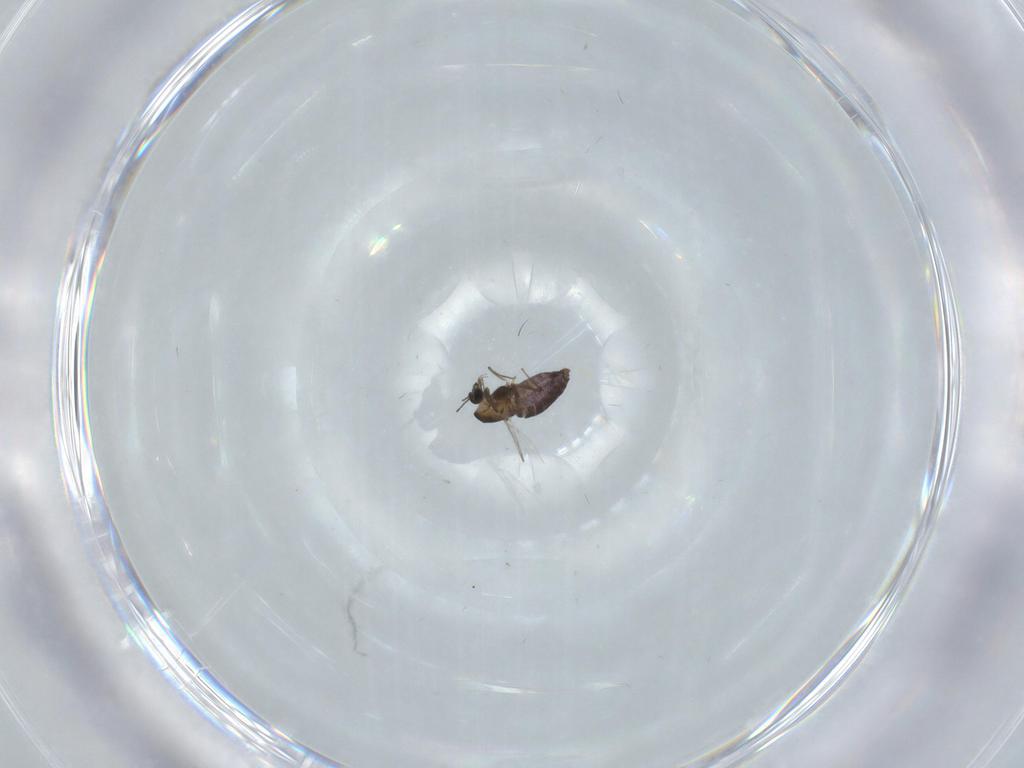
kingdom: Animalia
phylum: Arthropoda
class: Insecta
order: Diptera
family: Chironomidae
